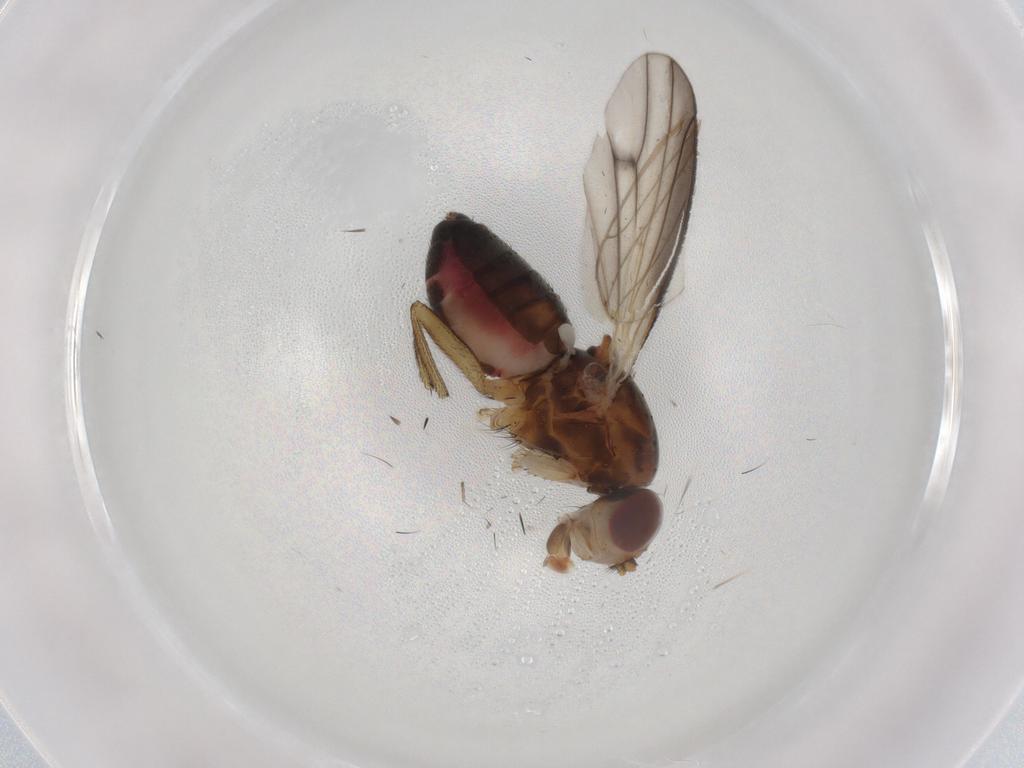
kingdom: Animalia
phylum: Arthropoda
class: Insecta
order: Diptera
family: Heleomyzidae
